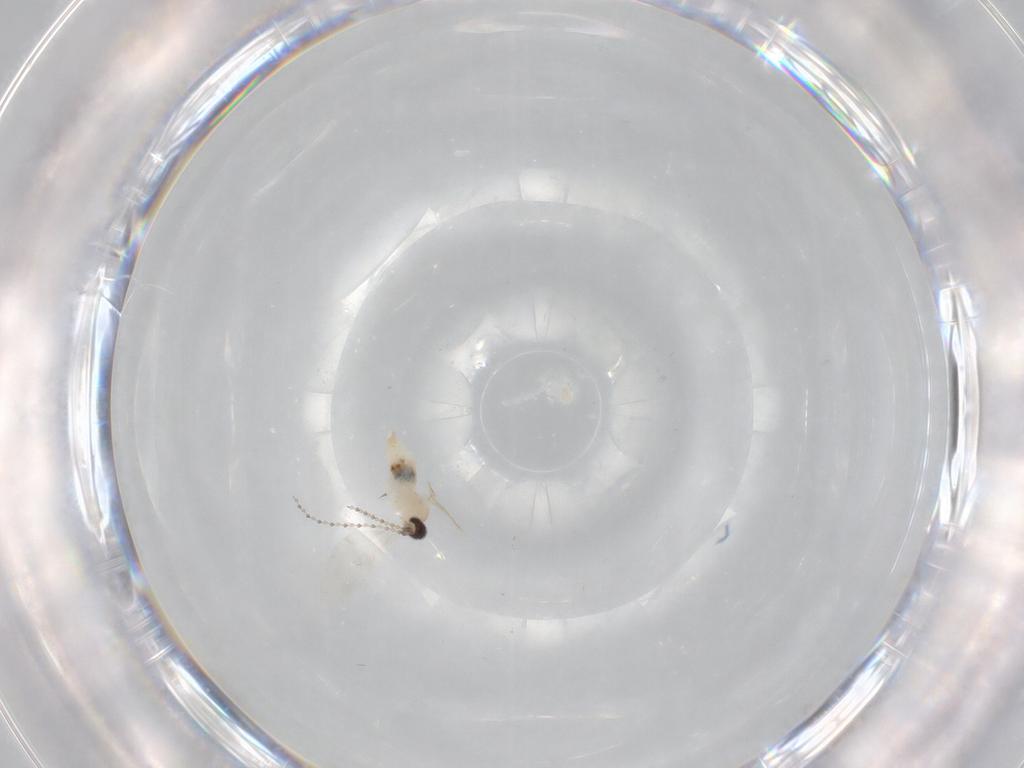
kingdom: Animalia
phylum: Arthropoda
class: Insecta
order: Diptera
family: Cecidomyiidae
